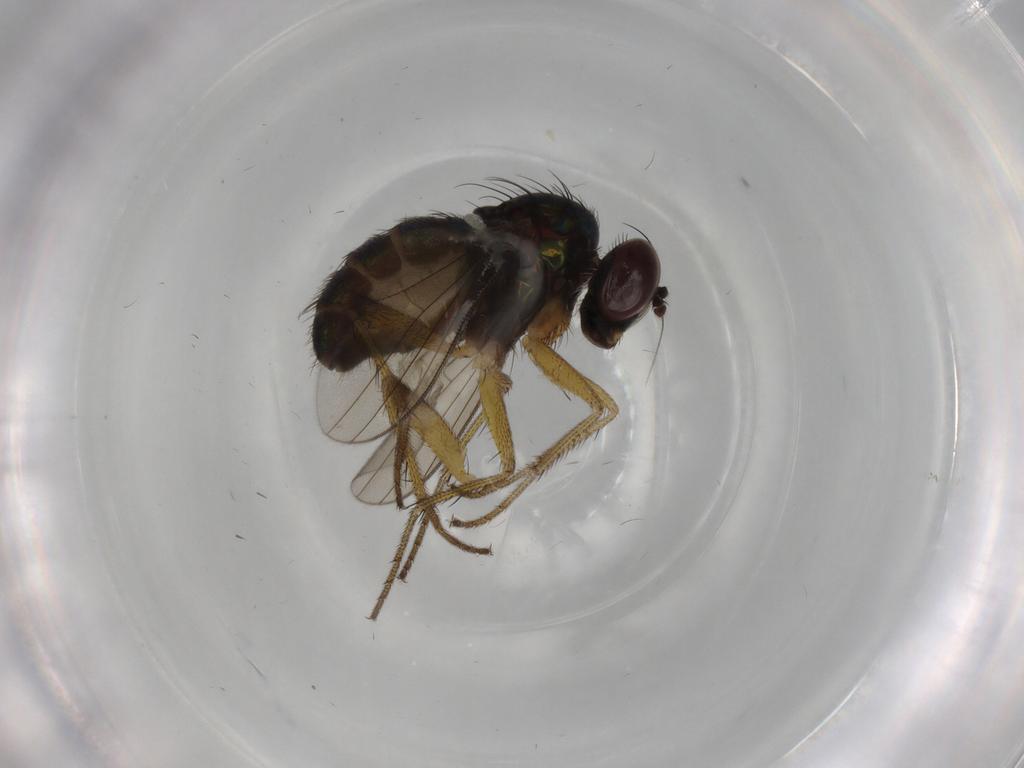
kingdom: Animalia
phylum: Arthropoda
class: Insecta
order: Diptera
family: Dolichopodidae
